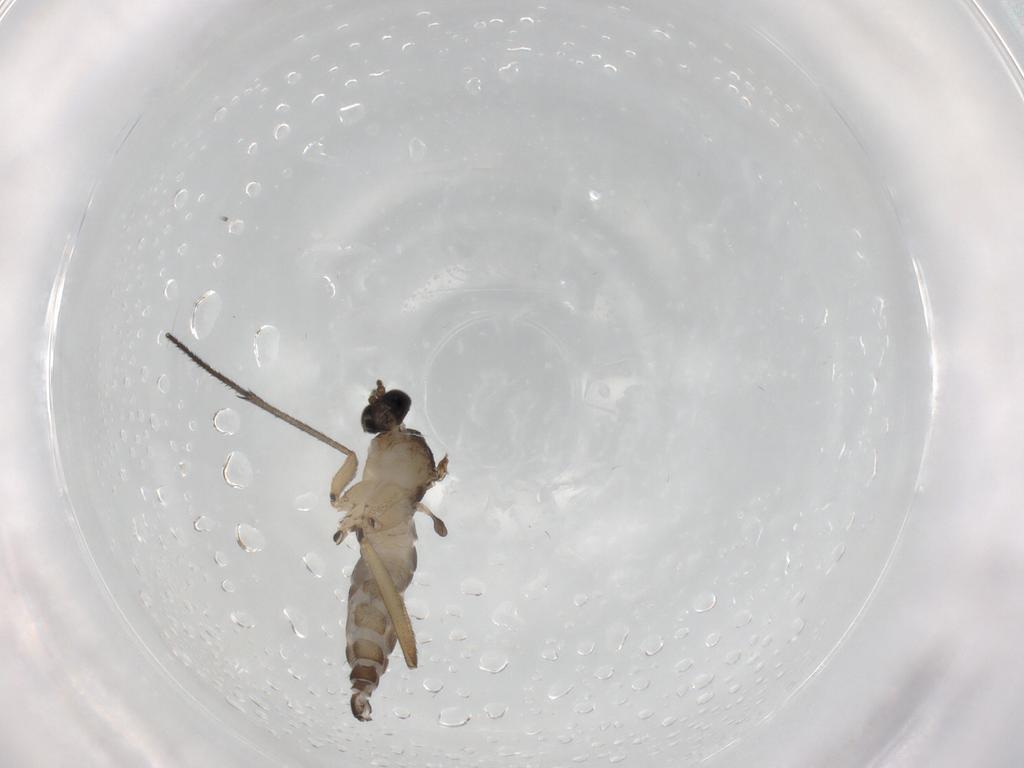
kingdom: Animalia
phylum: Arthropoda
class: Insecta
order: Diptera
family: Sciaridae
